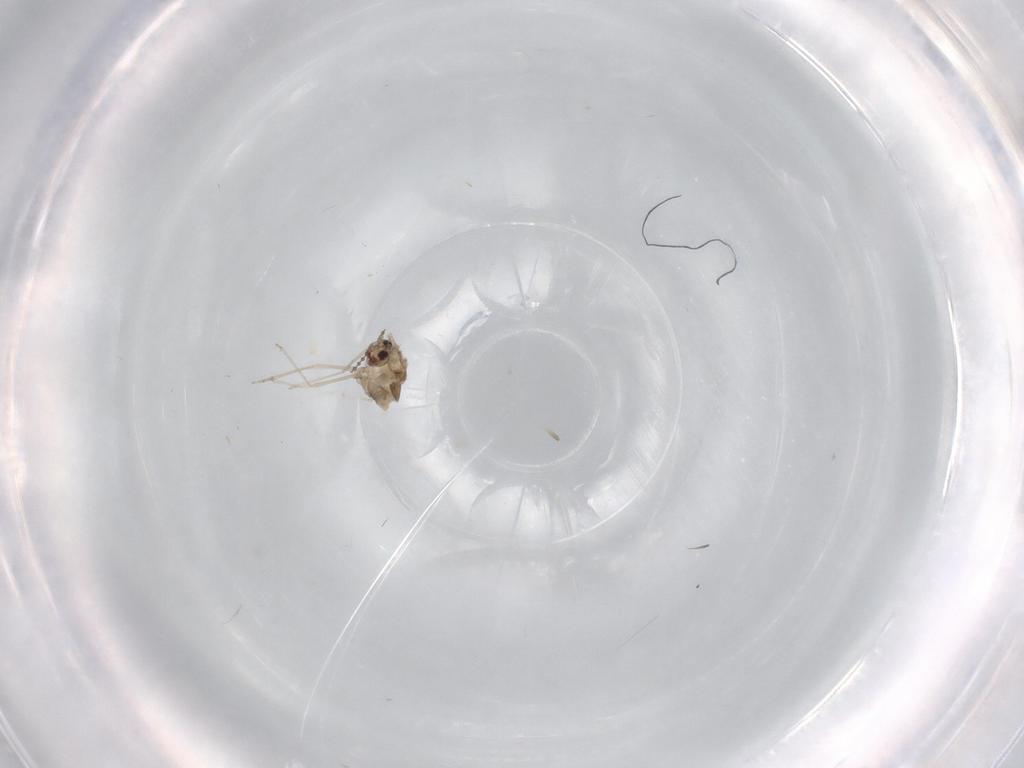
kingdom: Animalia
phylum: Arthropoda
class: Insecta
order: Diptera
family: Cecidomyiidae
